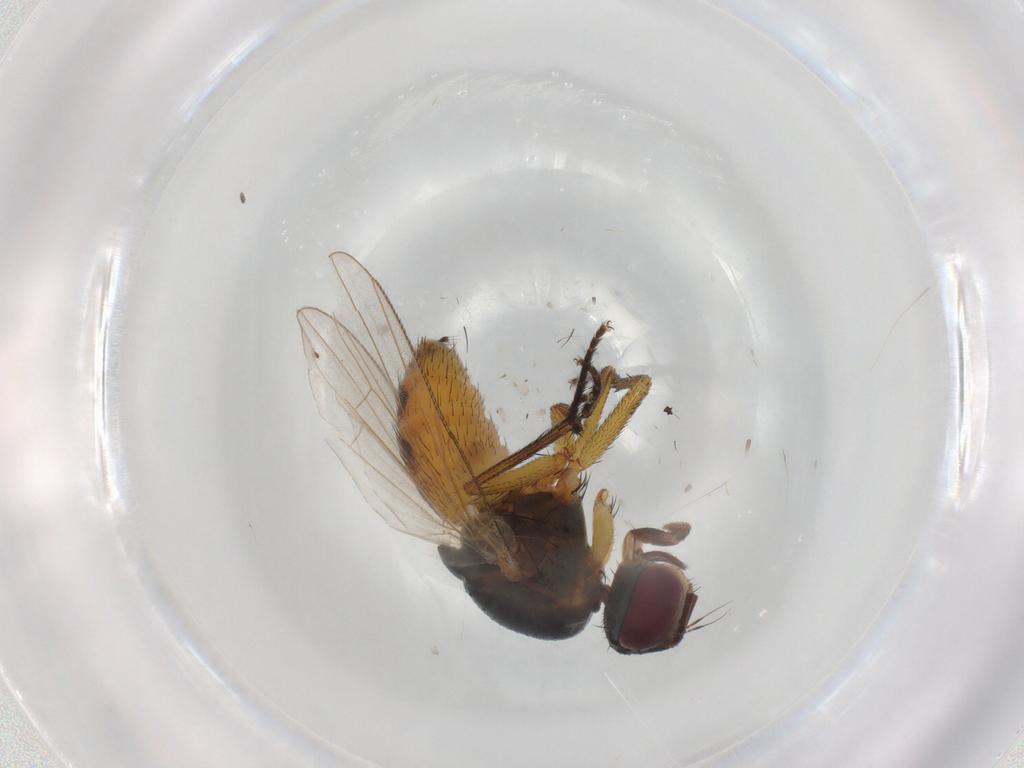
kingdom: Animalia
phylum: Arthropoda
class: Insecta
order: Diptera
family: Muscidae
